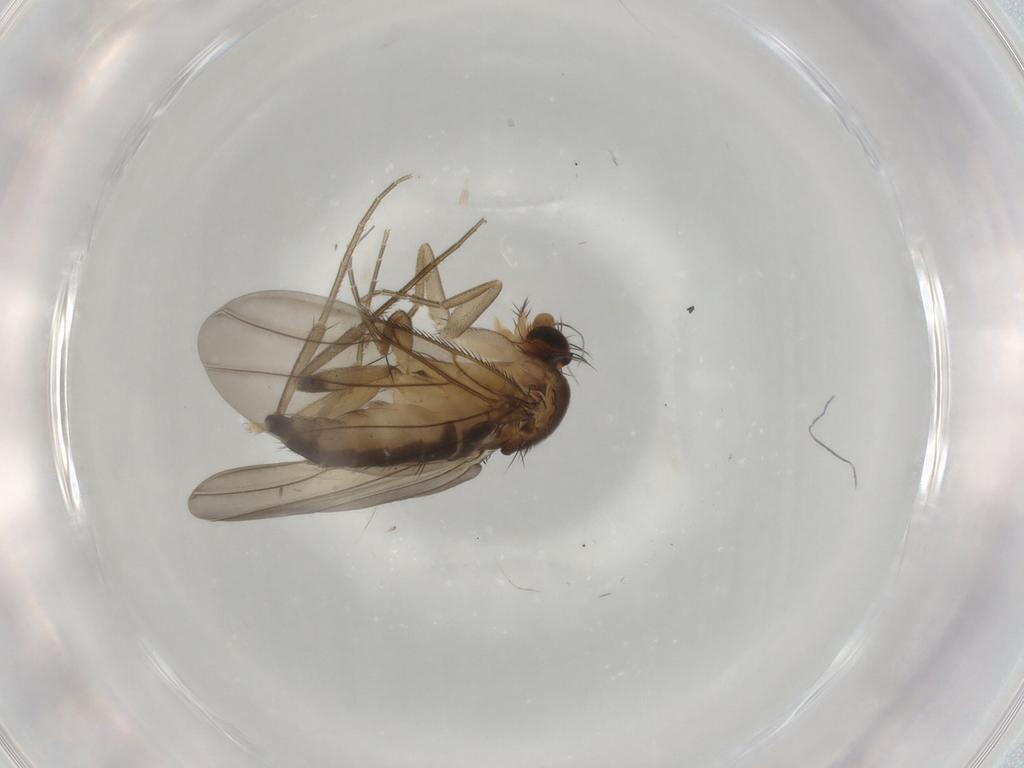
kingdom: Animalia
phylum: Arthropoda
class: Insecta
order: Diptera
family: Phoridae
